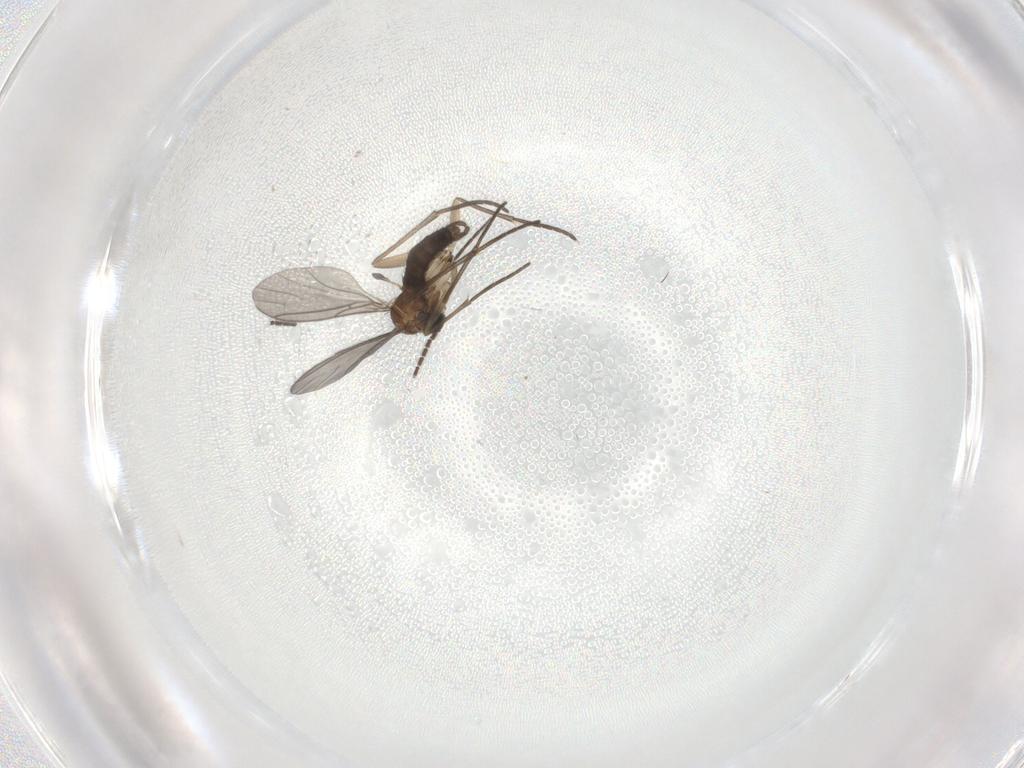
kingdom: Animalia
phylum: Arthropoda
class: Insecta
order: Diptera
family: Sciaridae
